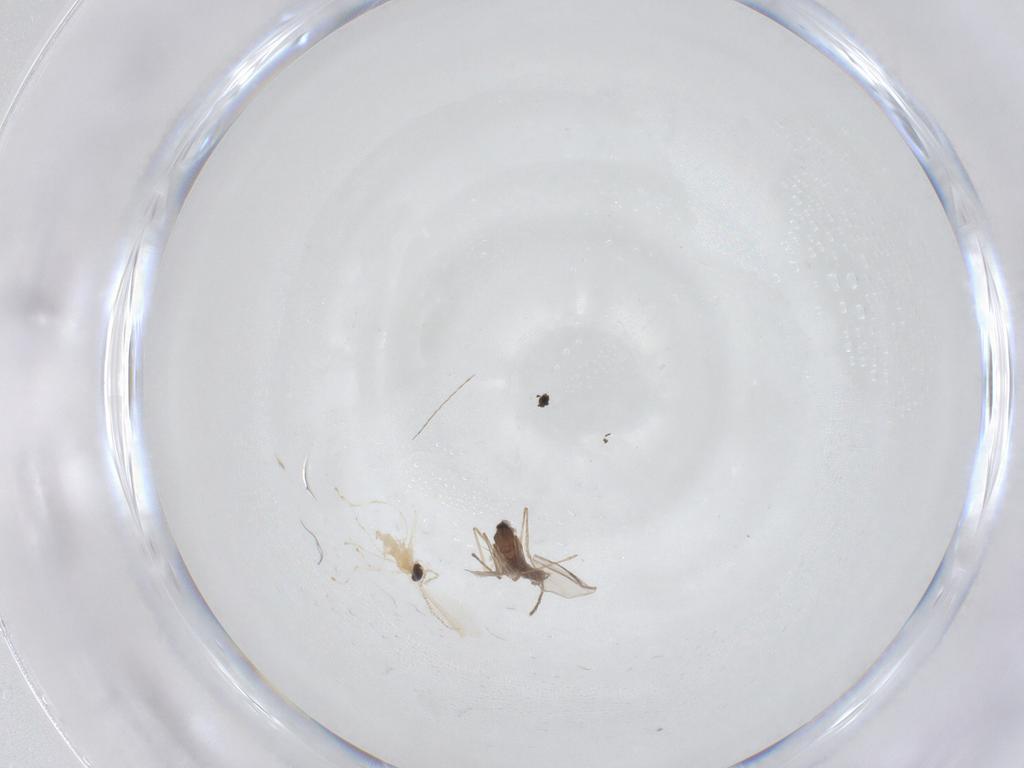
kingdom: Animalia
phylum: Arthropoda
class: Insecta
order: Diptera
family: Cecidomyiidae
